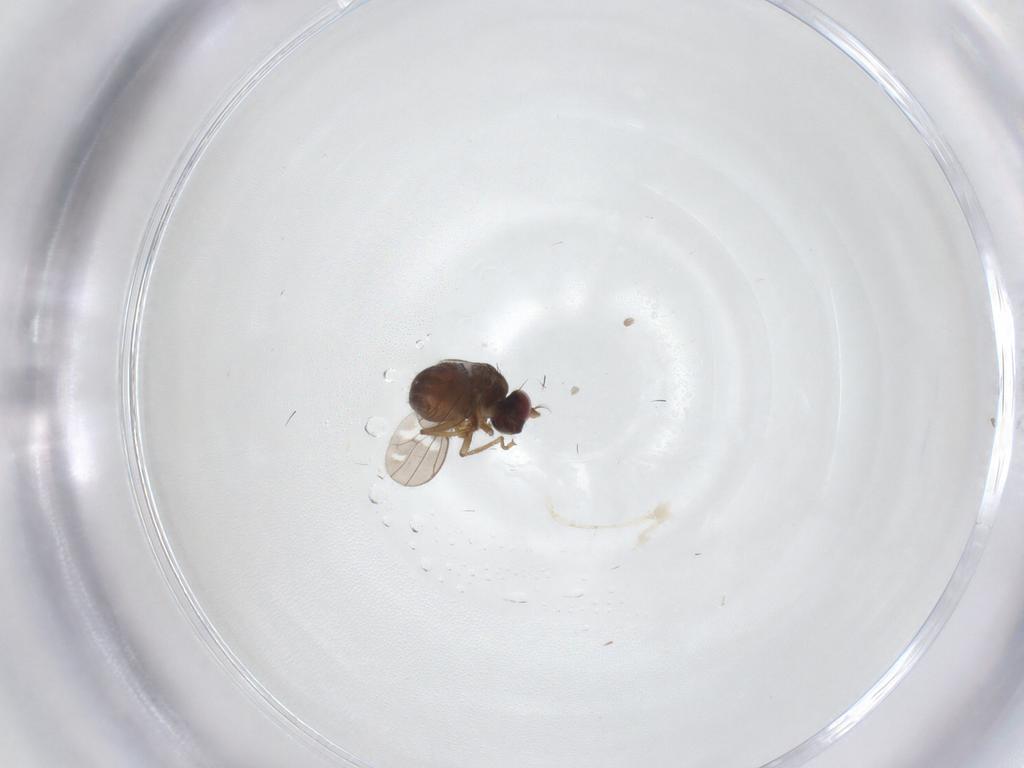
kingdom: Animalia
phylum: Arthropoda
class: Insecta
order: Diptera
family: Ephydridae
